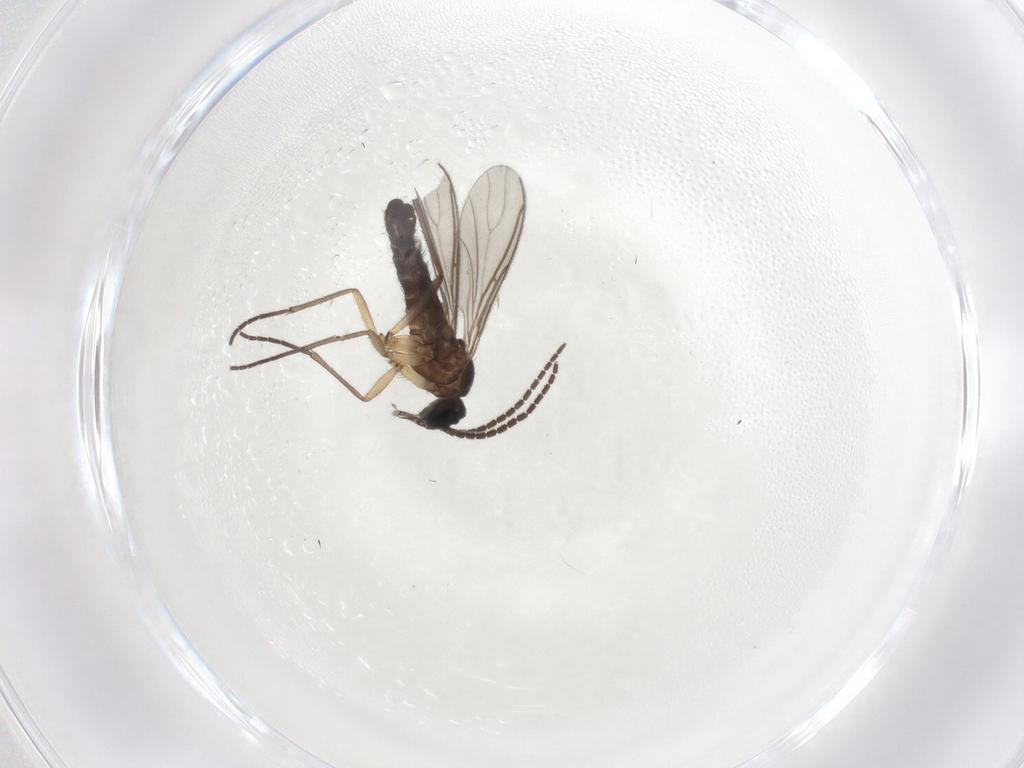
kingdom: Animalia
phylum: Arthropoda
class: Insecta
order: Diptera
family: Sciaridae
